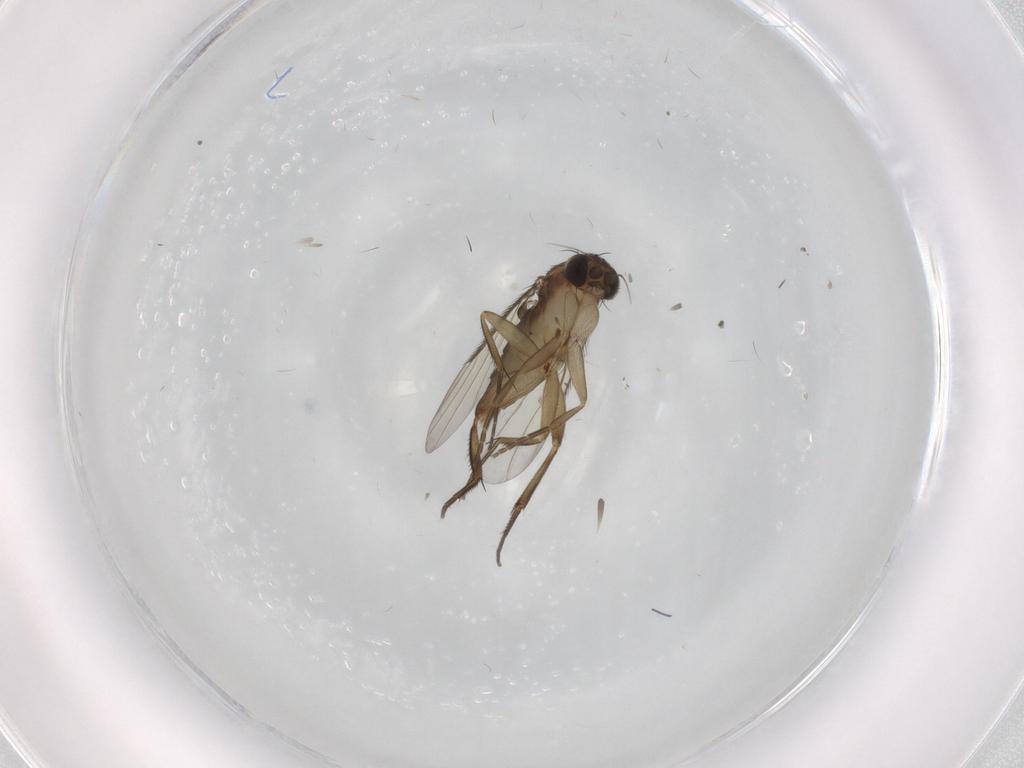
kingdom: Animalia
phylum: Arthropoda
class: Insecta
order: Diptera
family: Phoridae
